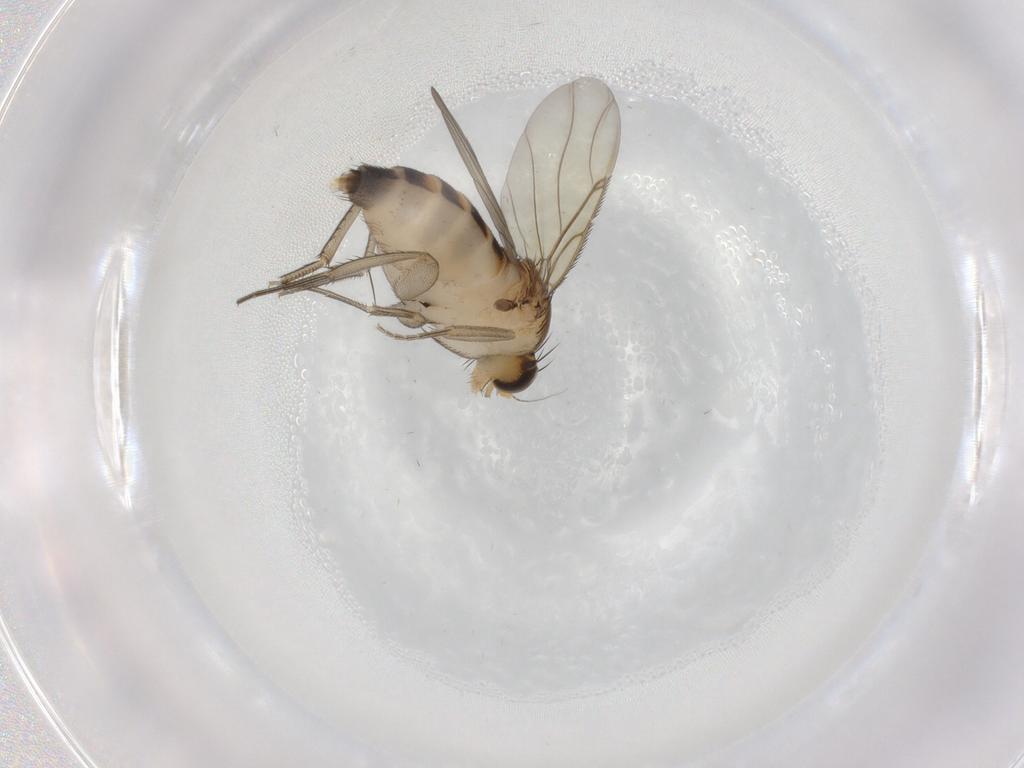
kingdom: Animalia
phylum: Arthropoda
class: Insecta
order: Diptera
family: Phoridae
